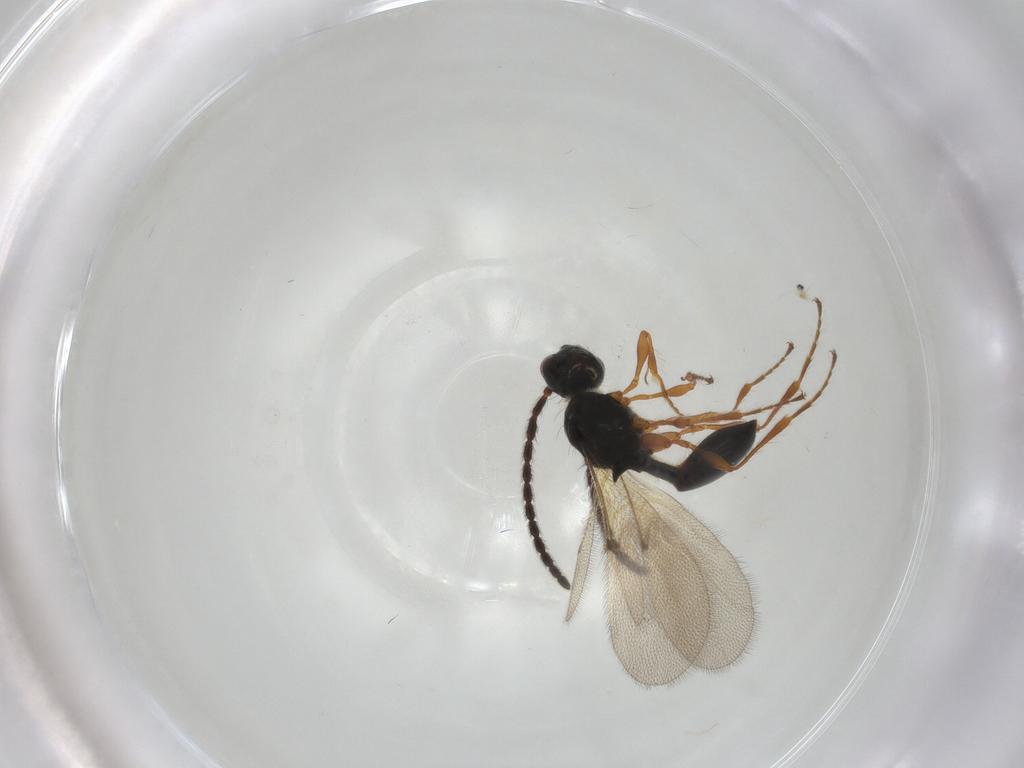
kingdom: Animalia
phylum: Arthropoda
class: Insecta
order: Hymenoptera
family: Diapriidae
